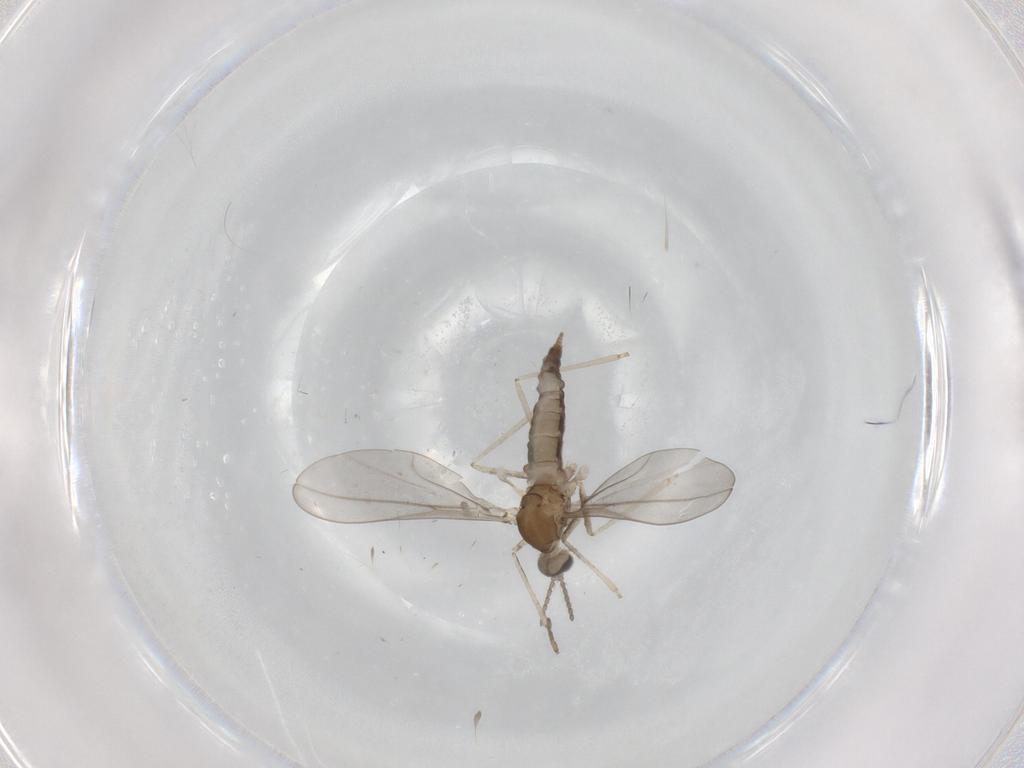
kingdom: Animalia
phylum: Arthropoda
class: Insecta
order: Diptera
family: Cecidomyiidae
